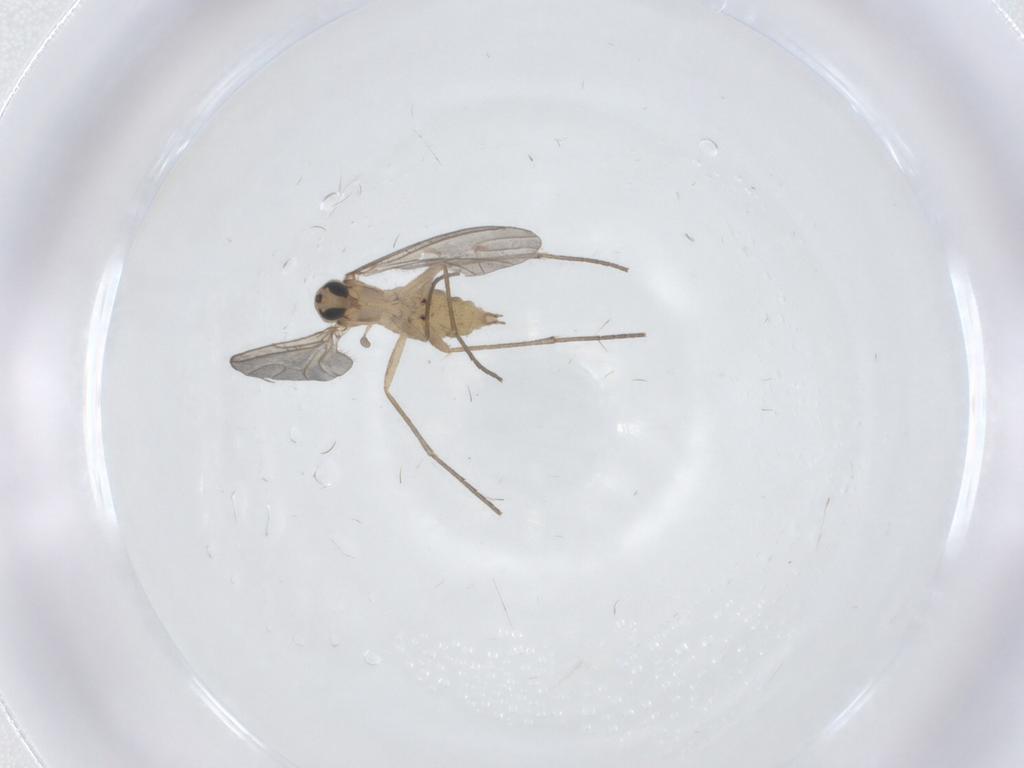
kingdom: Animalia
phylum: Arthropoda
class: Insecta
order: Diptera
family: Sciaridae
